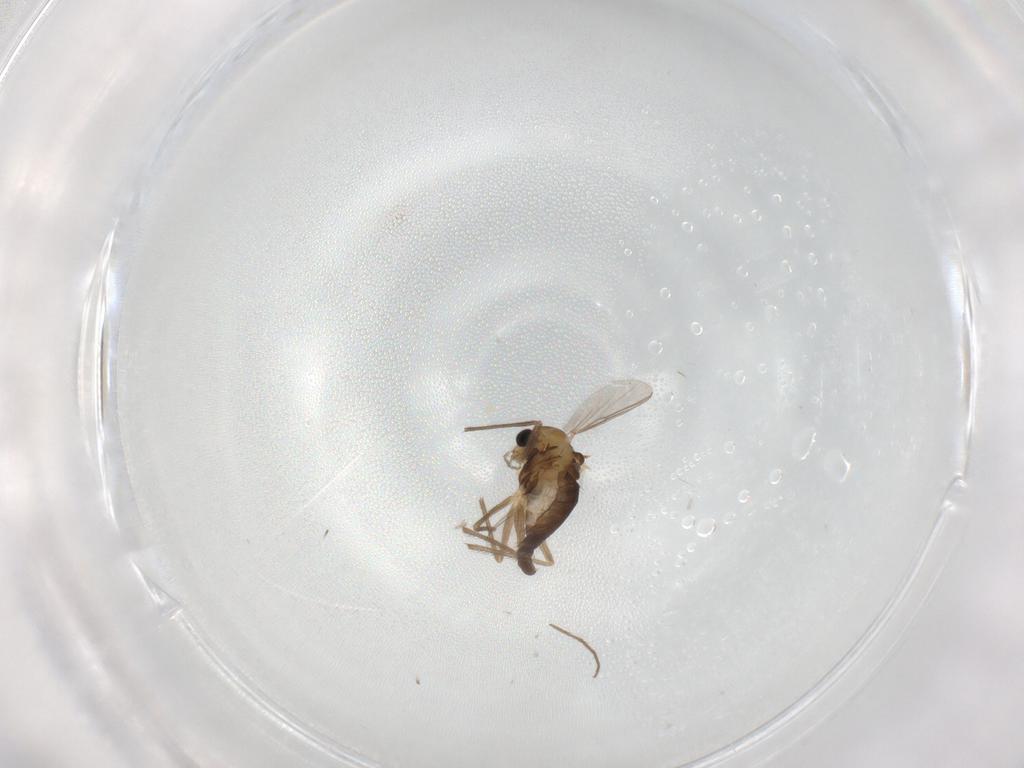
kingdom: Animalia
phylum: Arthropoda
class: Insecta
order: Diptera
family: Chironomidae
